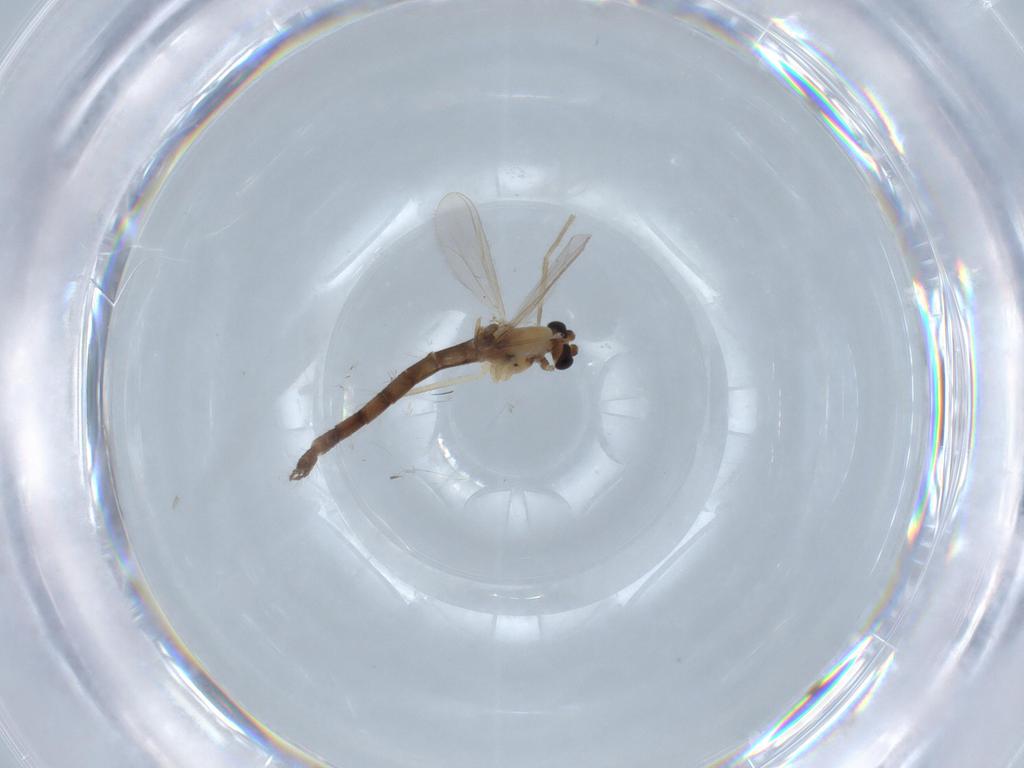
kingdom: Animalia
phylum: Arthropoda
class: Insecta
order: Diptera
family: Chironomidae
